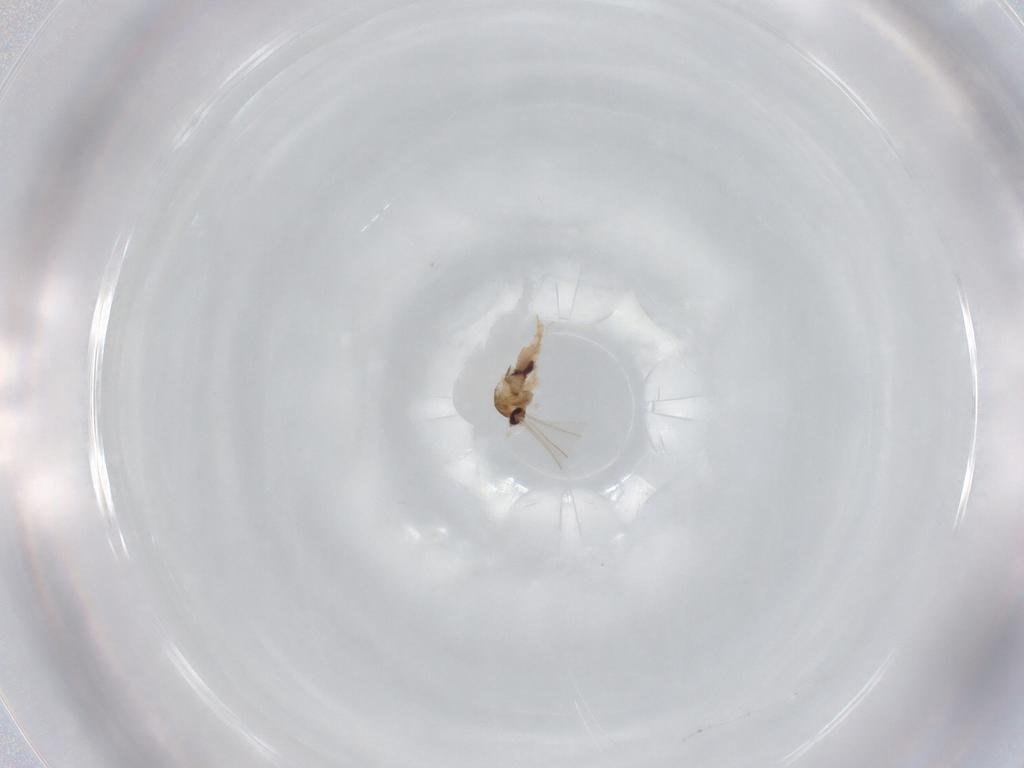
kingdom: Animalia
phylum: Arthropoda
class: Insecta
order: Diptera
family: Cecidomyiidae
